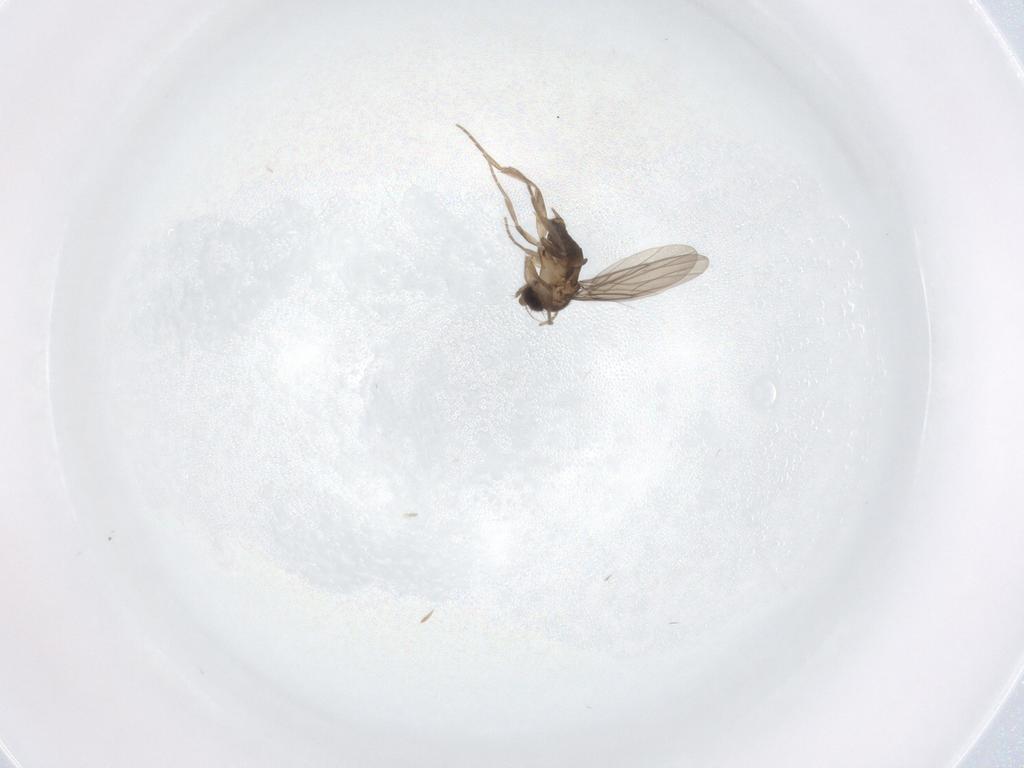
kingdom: Animalia
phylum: Arthropoda
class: Insecta
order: Diptera
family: Phoridae
